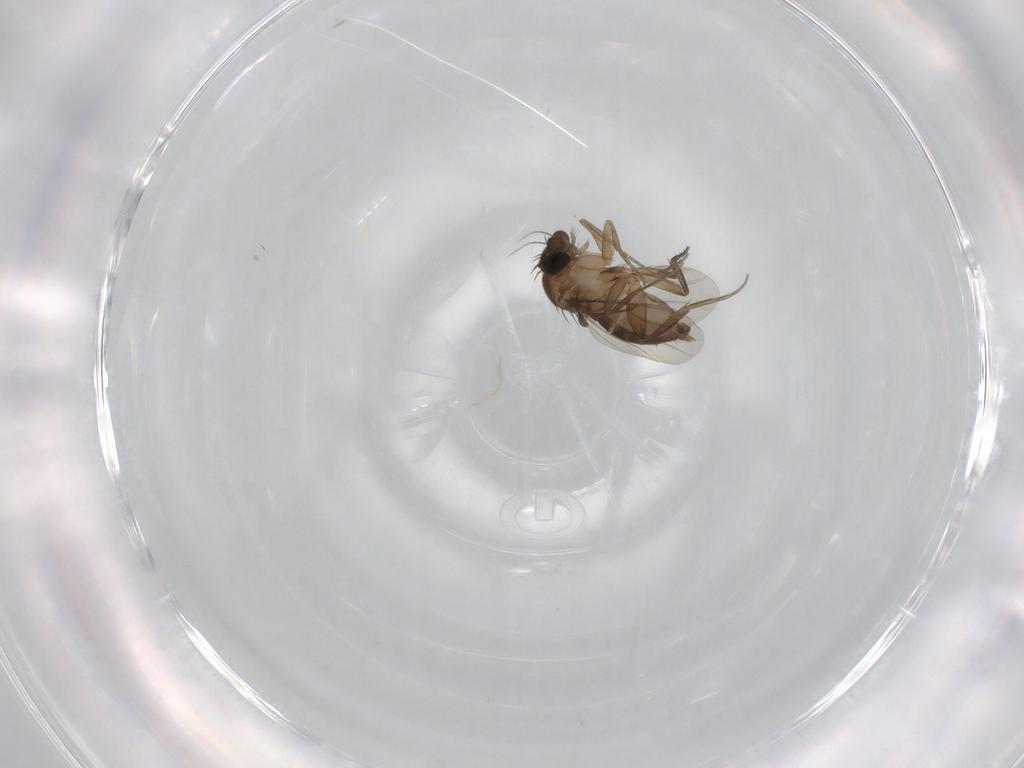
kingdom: Animalia
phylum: Arthropoda
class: Insecta
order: Diptera
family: Phoridae
